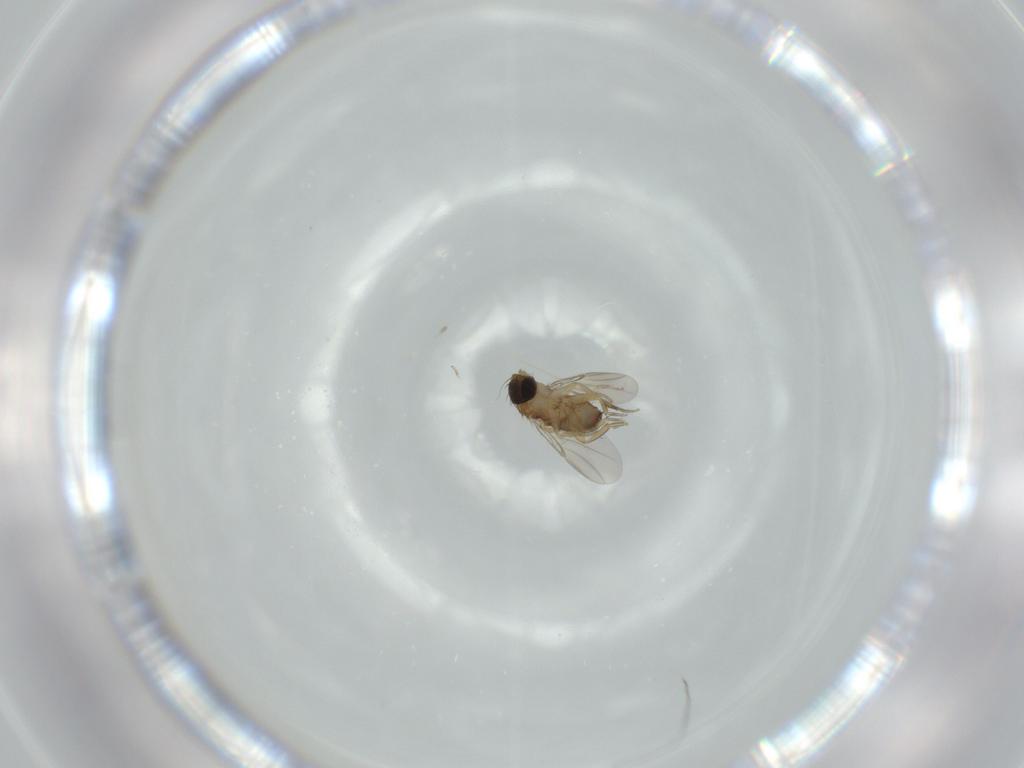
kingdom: Animalia
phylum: Arthropoda
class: Insecta
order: Diptera
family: Phoridae
